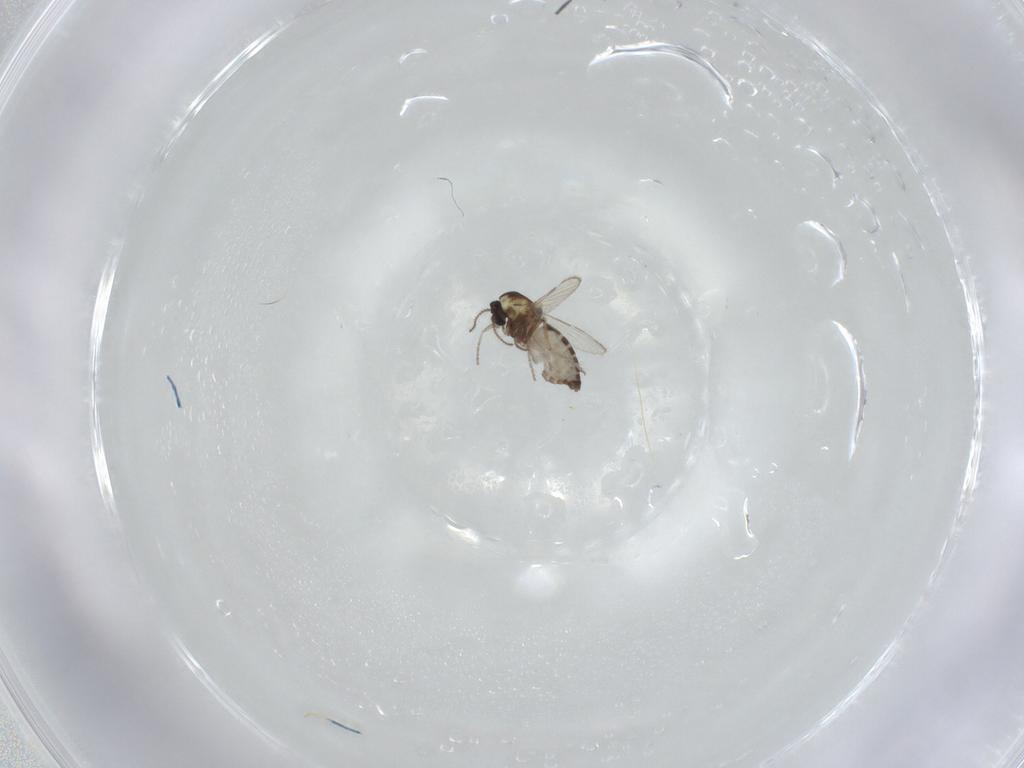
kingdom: Animalia
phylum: Arthropoda
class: Insecta
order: Diptera
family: Ceratopogonidae
